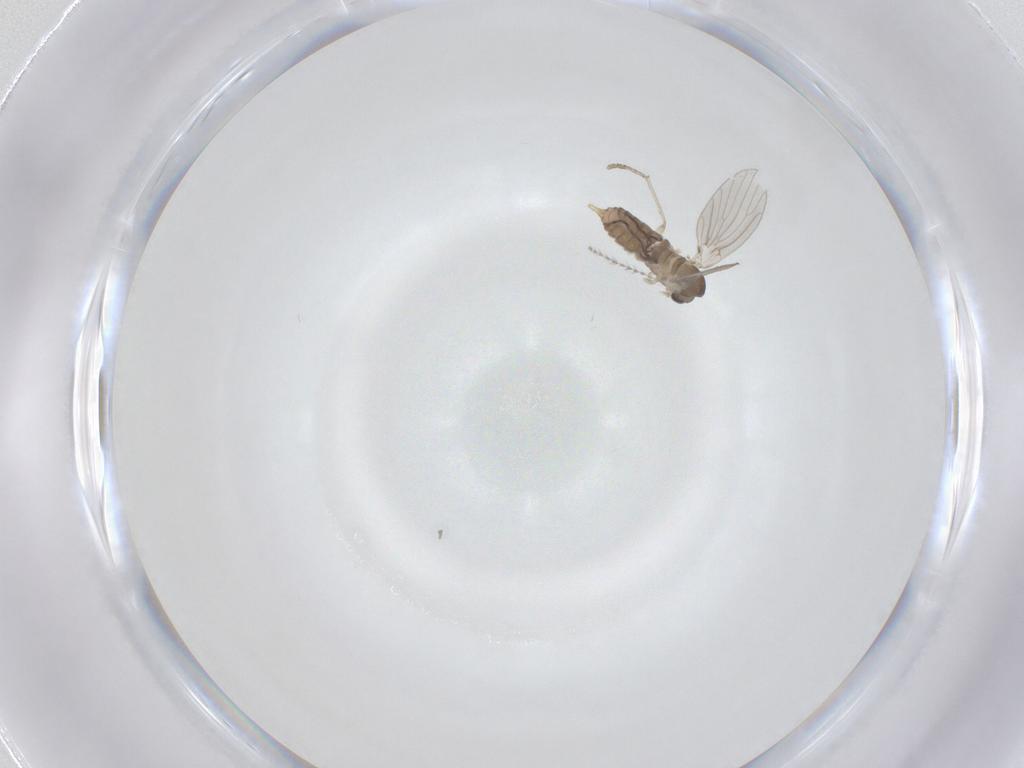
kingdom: Animalia
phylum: Arthropoda
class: Insecta
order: Diptera
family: Psychodidae
